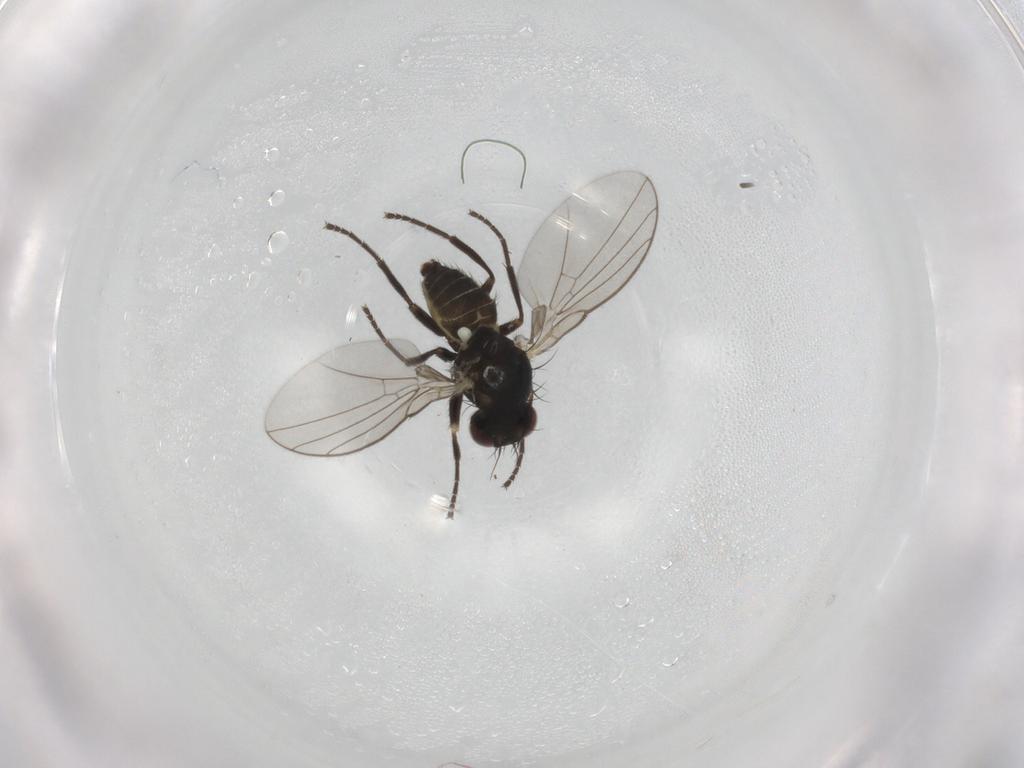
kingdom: Animalia
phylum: Arthropoda
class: Insecta
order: Diptera
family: Agromyzidae
